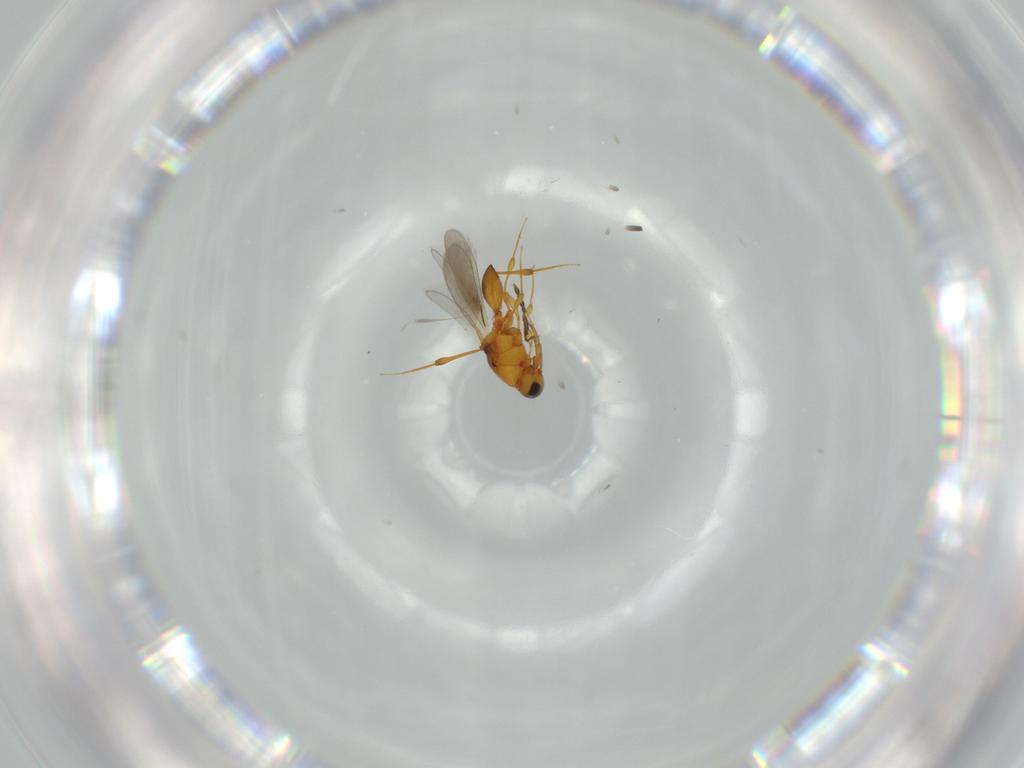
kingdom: Animalia
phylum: Arthropoda
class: Insecta
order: Hymenoptera
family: Platygastridae
